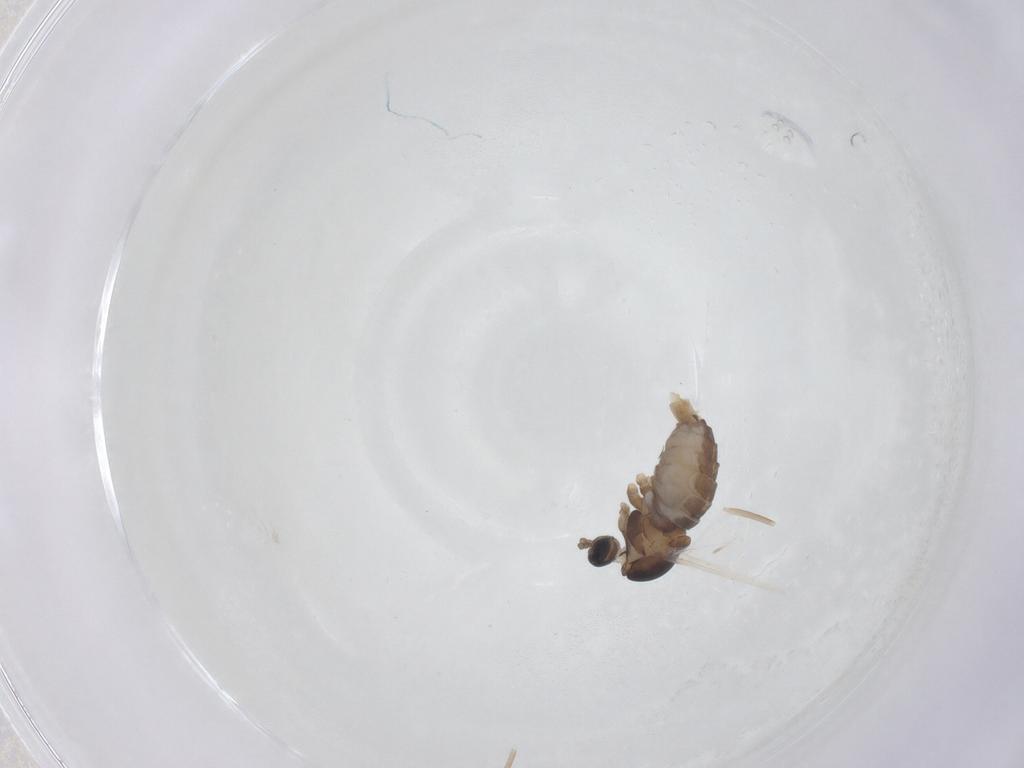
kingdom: Animalia
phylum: Arthropoda
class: Insecta
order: Diptera
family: Cecidomyiidae
